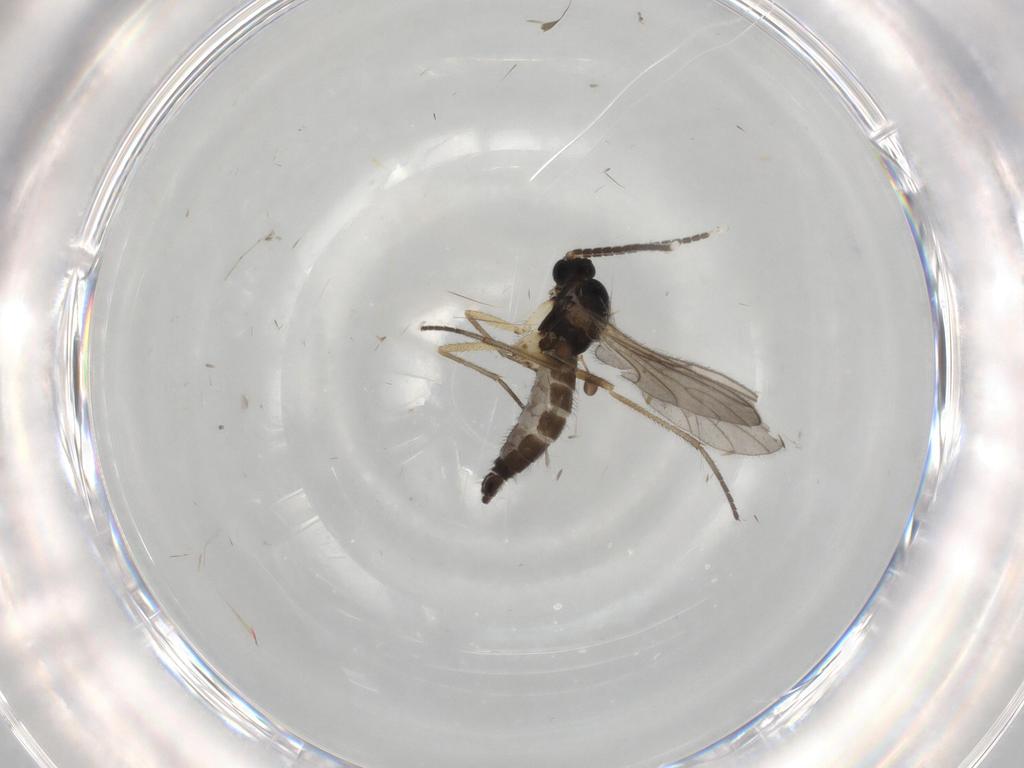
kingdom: Animalia
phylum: Arthropoda
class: Insecta
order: Diptera
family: Sciaridae
